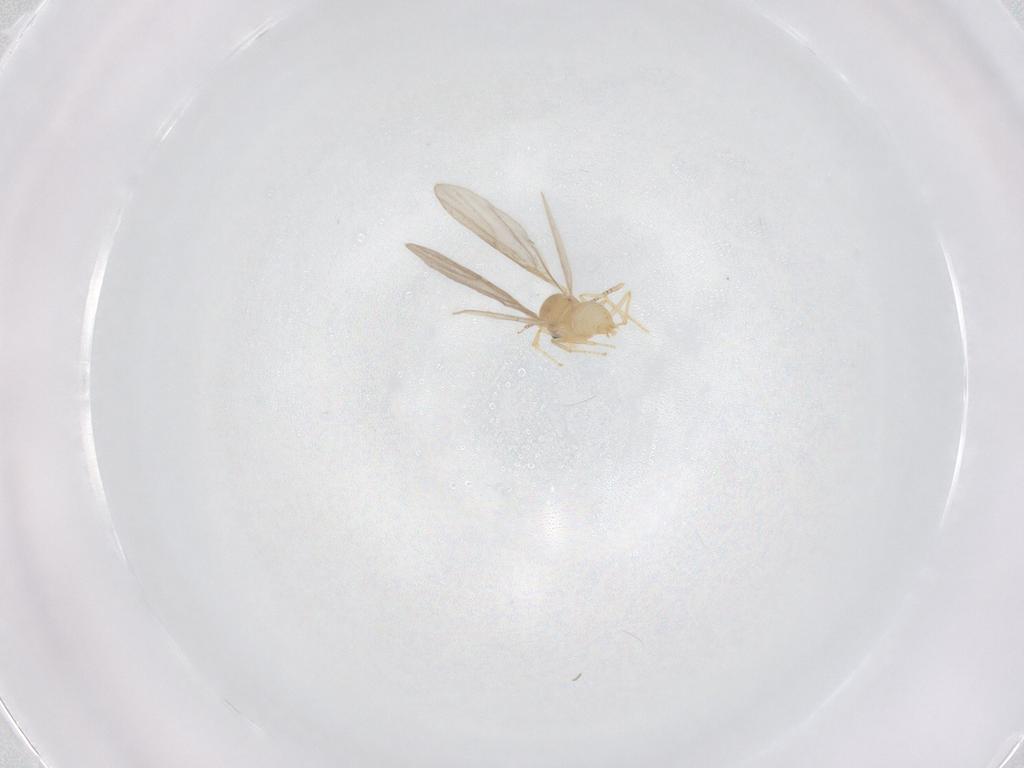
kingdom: Animalia
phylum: Arthropoda
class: Insecta
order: Hymenoptera
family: Formicidae
